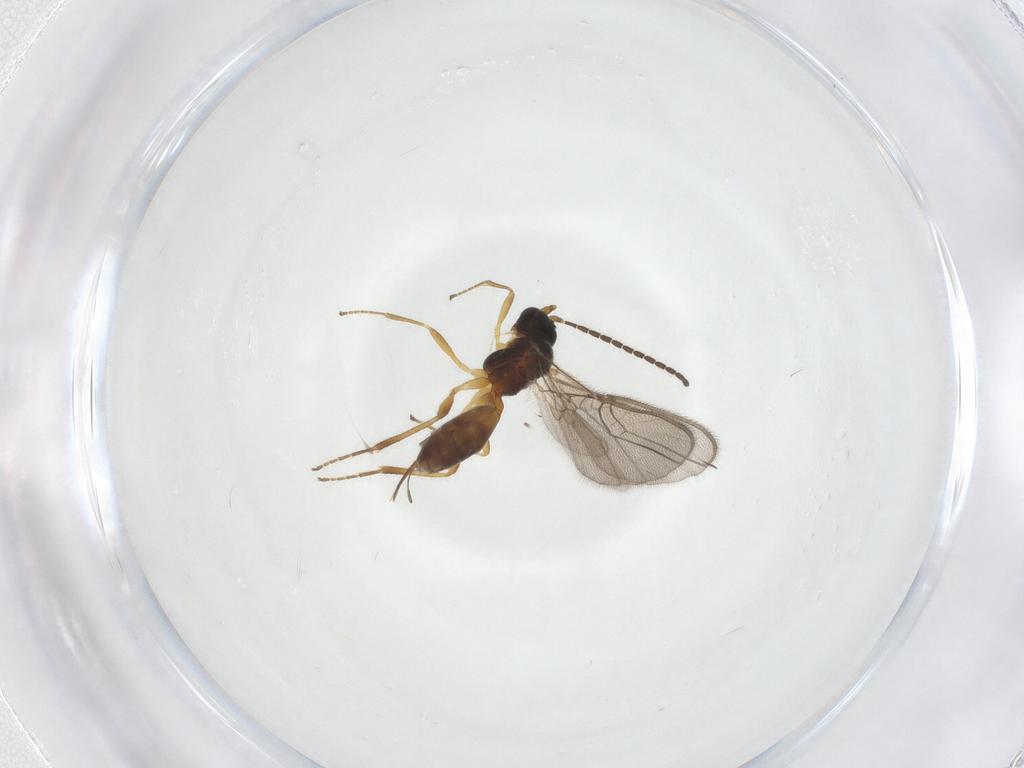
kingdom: Animalia
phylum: Arthropoda
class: Insecta
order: Hymenoptera
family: Braconidae
